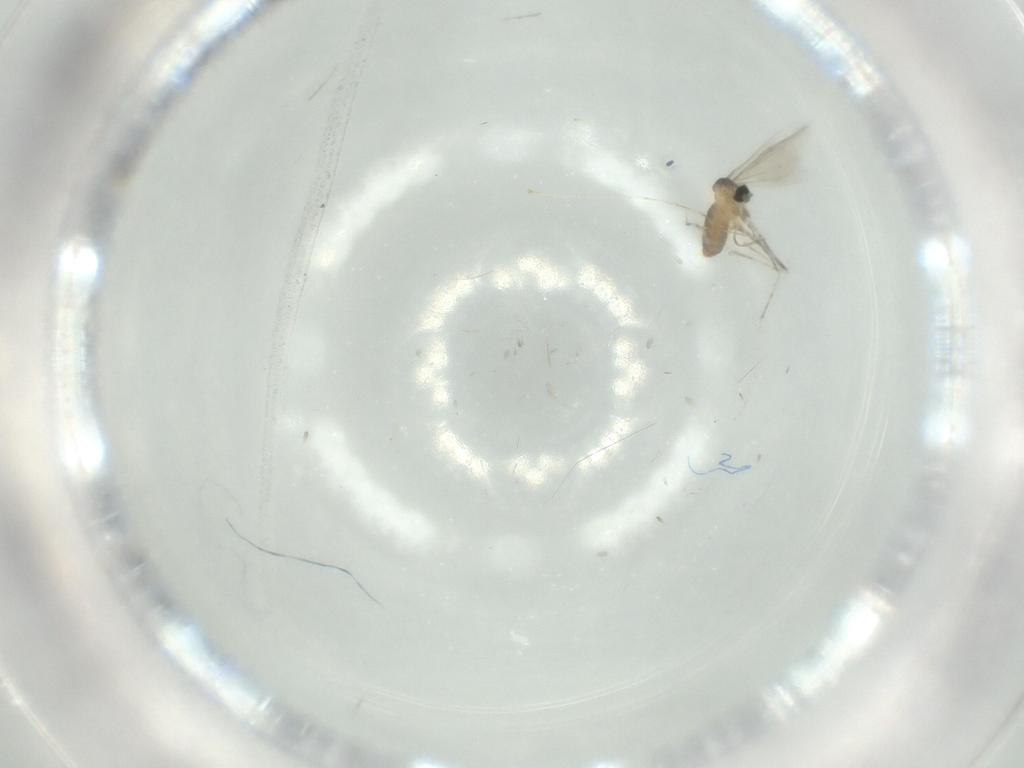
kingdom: Animalia
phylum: Arthropoda
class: Insecta
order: Diptera
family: Cecidomyiidae
